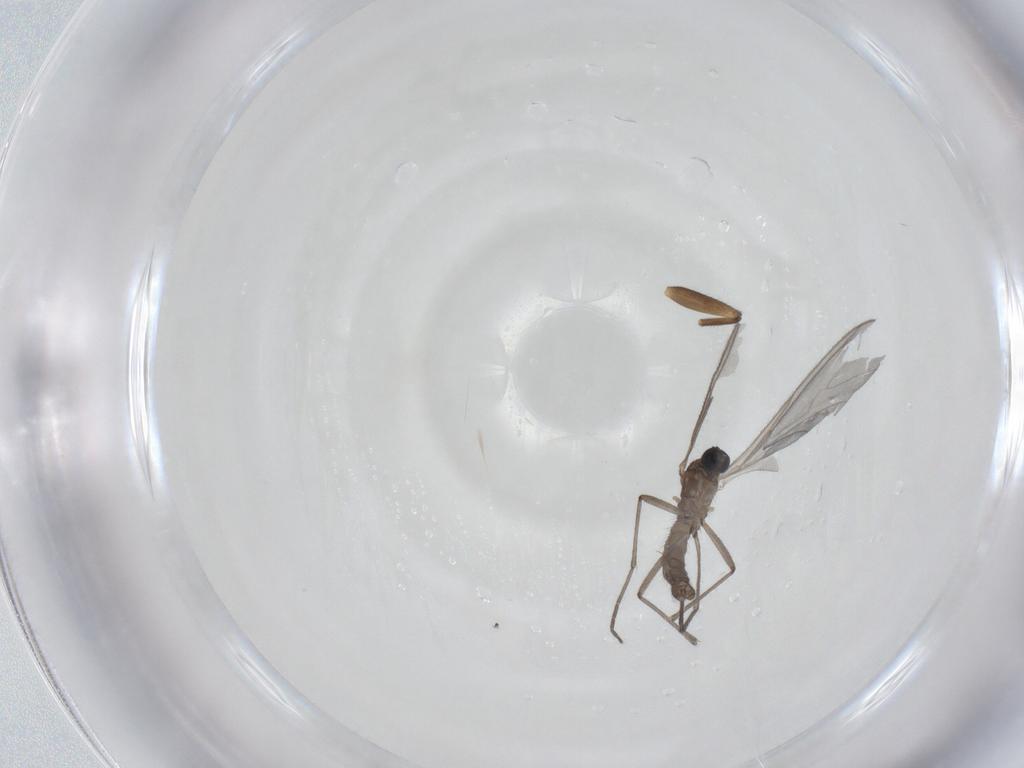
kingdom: Animalia
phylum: Arthropoda
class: Insecta
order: Diptera
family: Sciaridae
